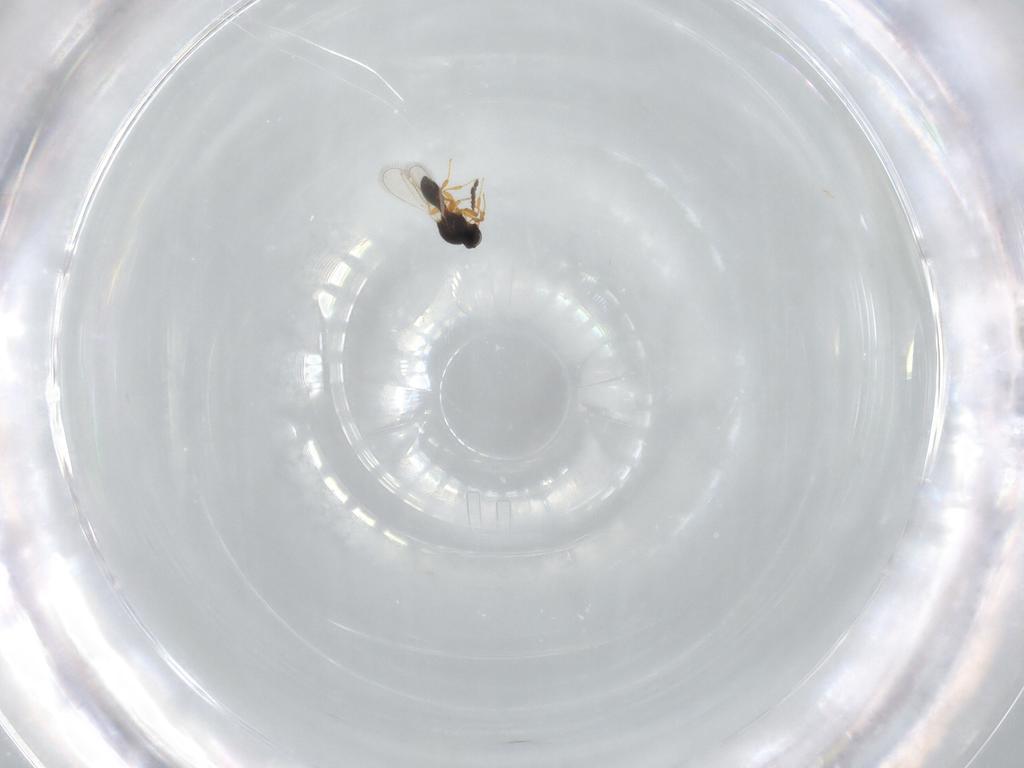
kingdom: Animalia
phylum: Arthropoda
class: Insecta
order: Hymenoptera
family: Platygastridae
